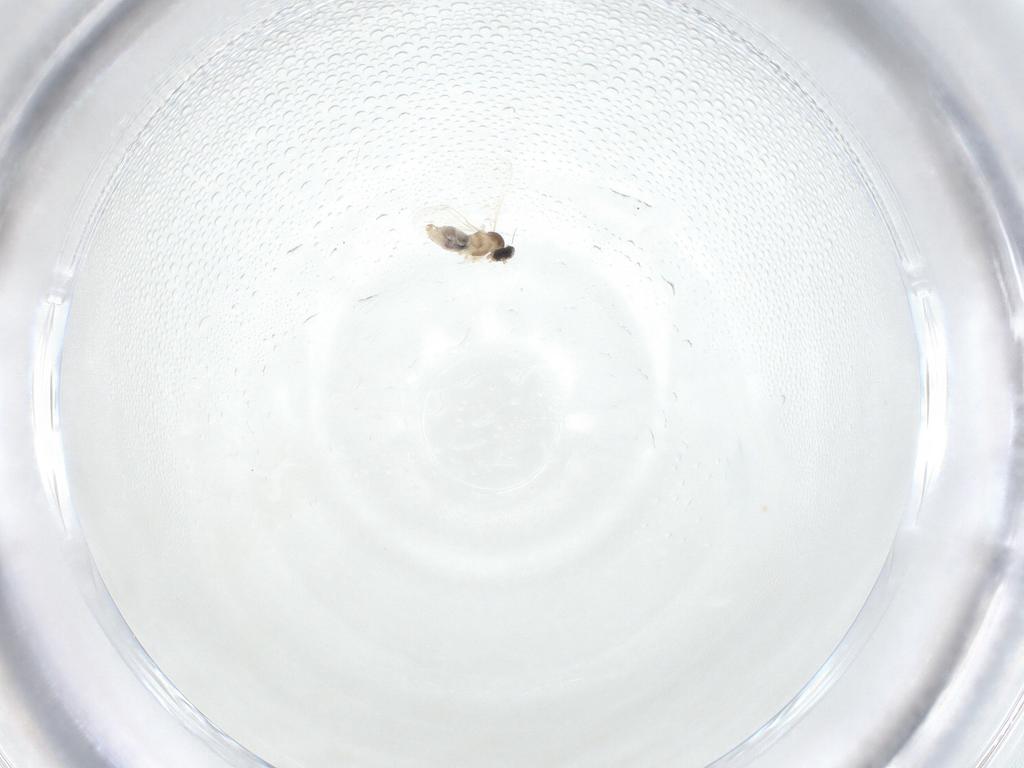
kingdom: Animalia
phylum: Arthropoda
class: Insecta
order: Diptera
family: Cecidomyiidae
